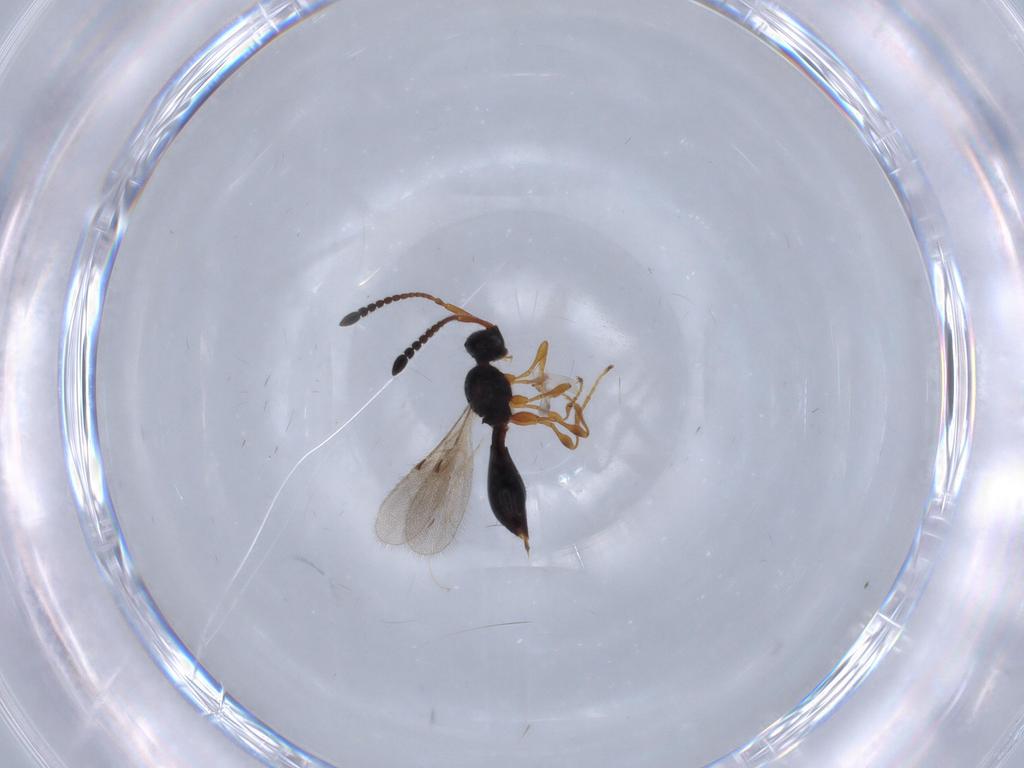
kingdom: Animalia
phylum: Arthropoda
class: Insecta
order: Hymenoptera
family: Diapriidae
